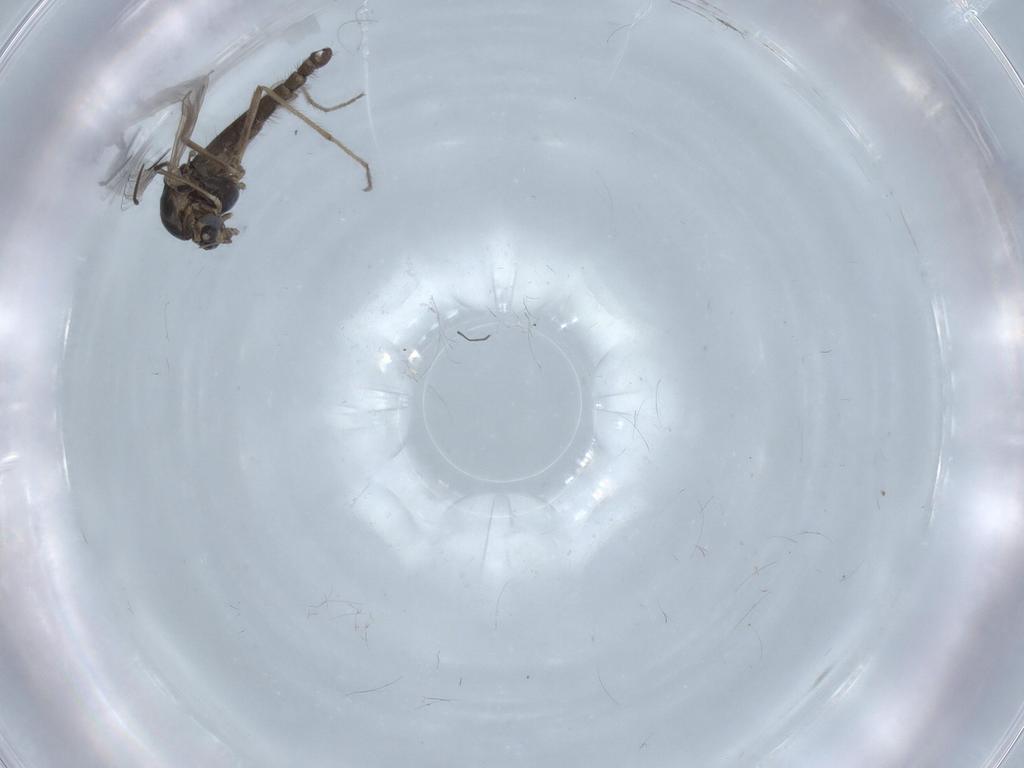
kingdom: Animalia
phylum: Arthropoda
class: Insecta
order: Diptera
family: Chironomidae
